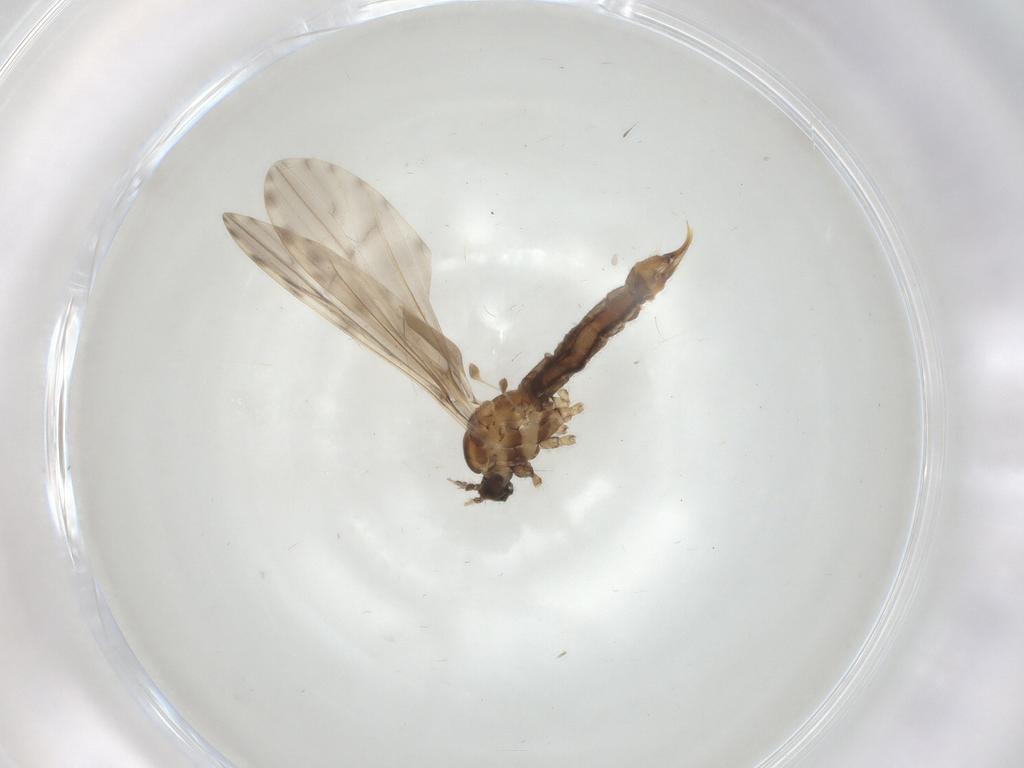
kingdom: Animalia
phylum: Arthropoda
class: Insecta
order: Diptera
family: Limoniidae
